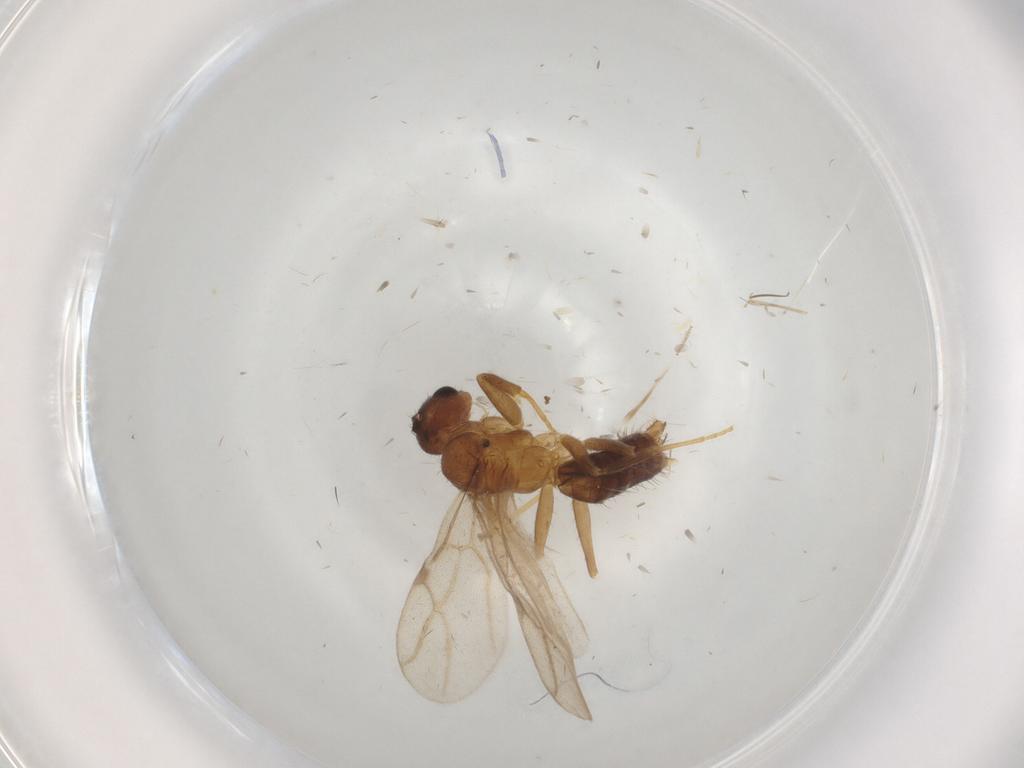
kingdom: Animalia
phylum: Arthropoda
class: Insecta
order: Hymenoptera
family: Formicidae
